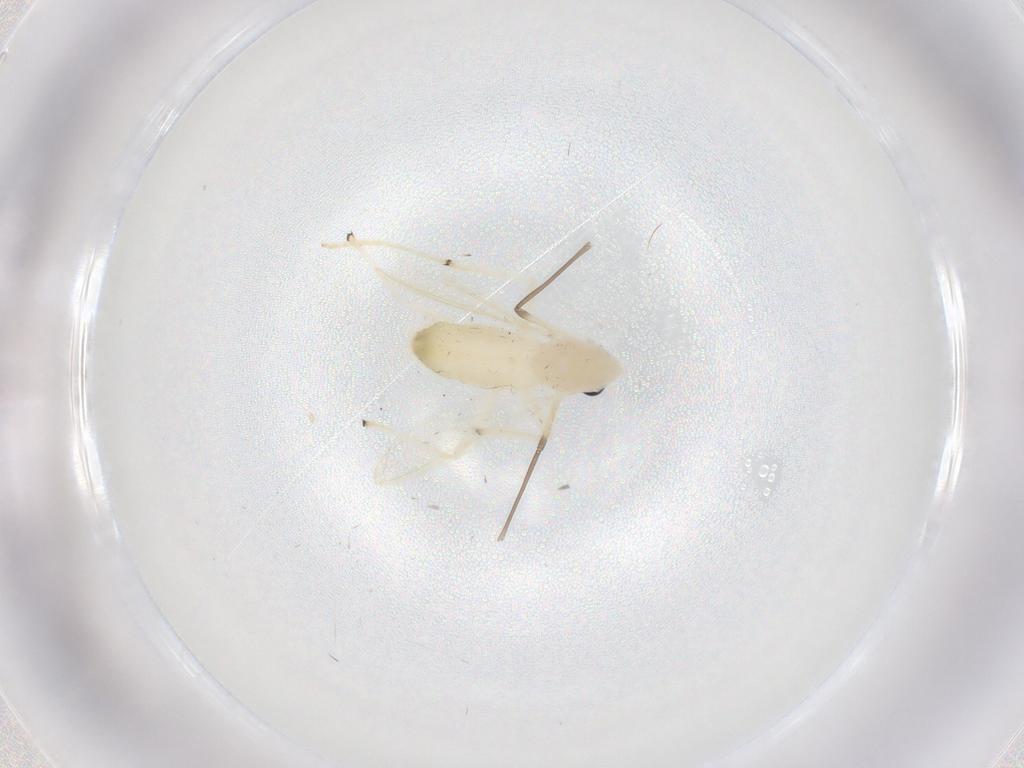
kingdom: Animalia
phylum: Arthropoda
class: Insecta
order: Diptera
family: Chironomidae
